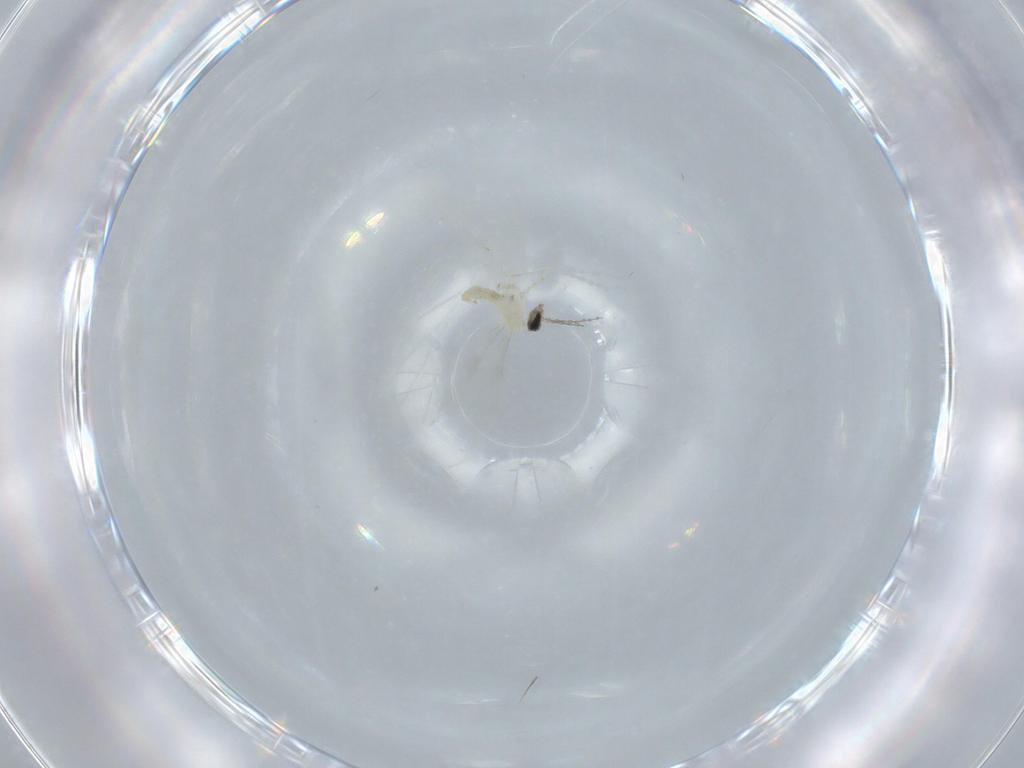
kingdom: Animalia
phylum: Arthropoda
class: Insecta
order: Diptera
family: Cecidomyiidae
